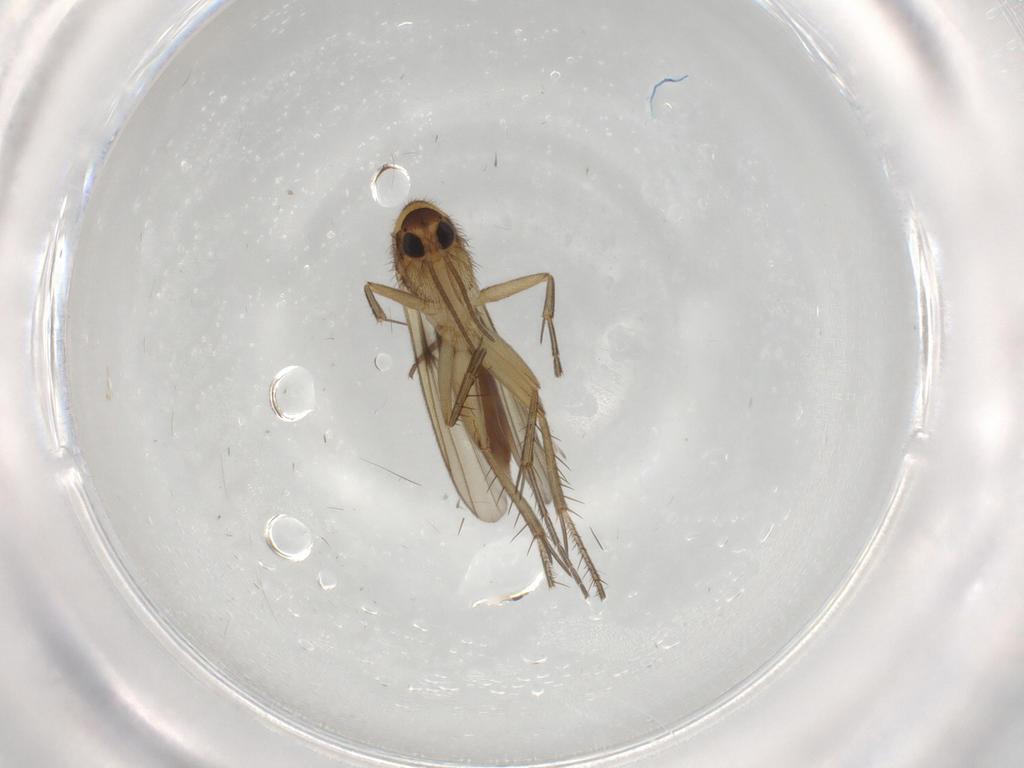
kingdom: Animalia
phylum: Arthropoda
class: Insecta
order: Diptera
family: Mycetophilidae
